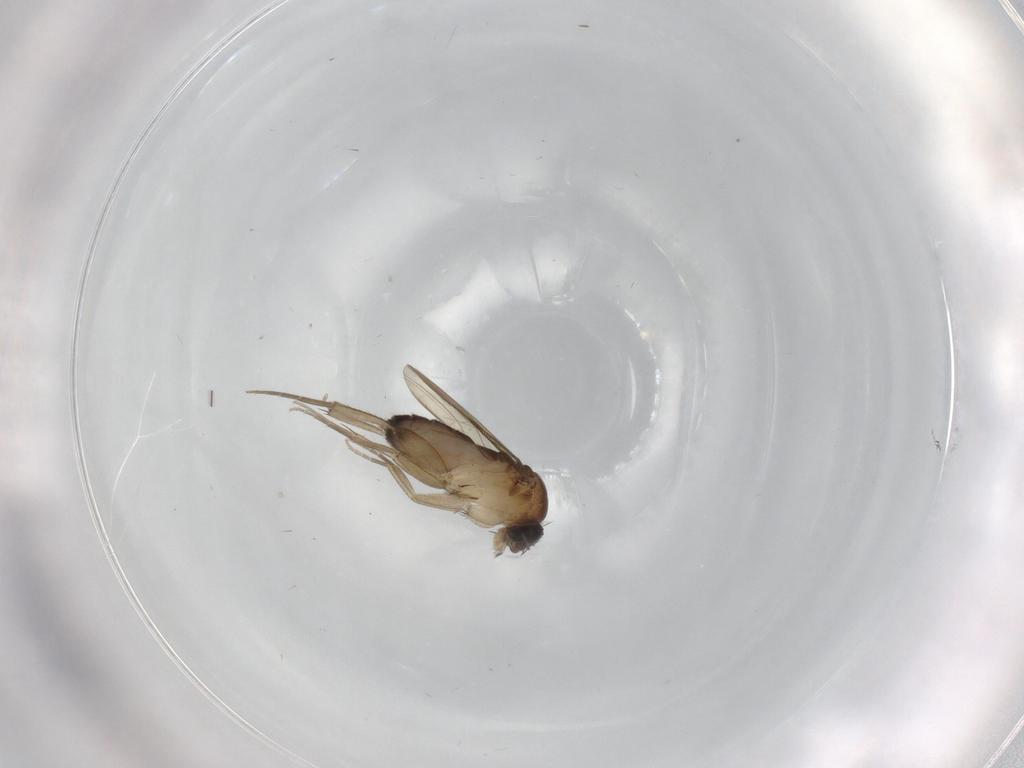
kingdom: Animalia
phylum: Arthropoda
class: Insecta
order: Diptera
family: Phoridae
